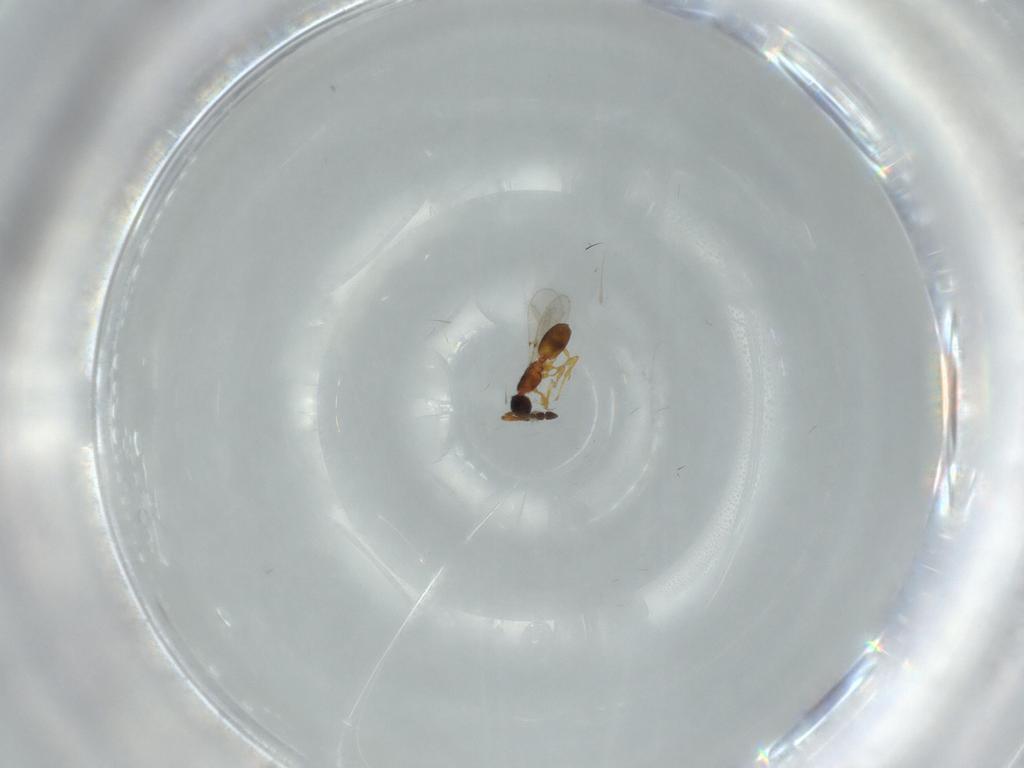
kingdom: Animalia
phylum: Arthropoda
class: Insecta
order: Hymenoptera
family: Diapriidae
